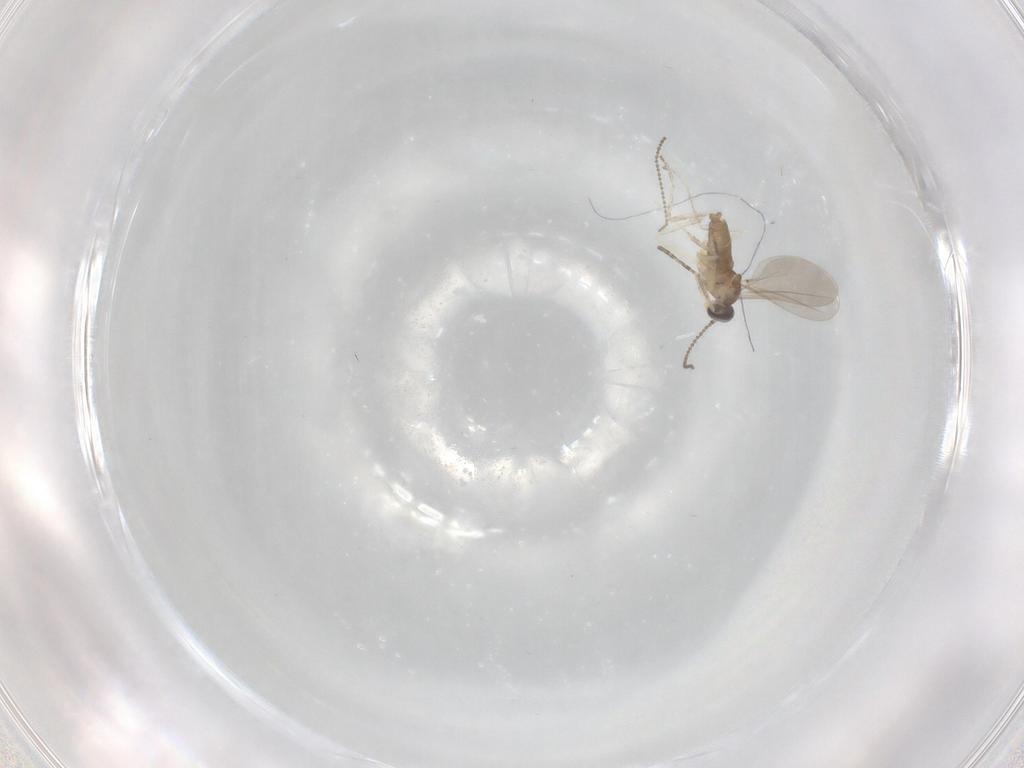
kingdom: Animalia
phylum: Arthropoda
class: Insecta
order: Diptera
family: Cecidomyiidae
